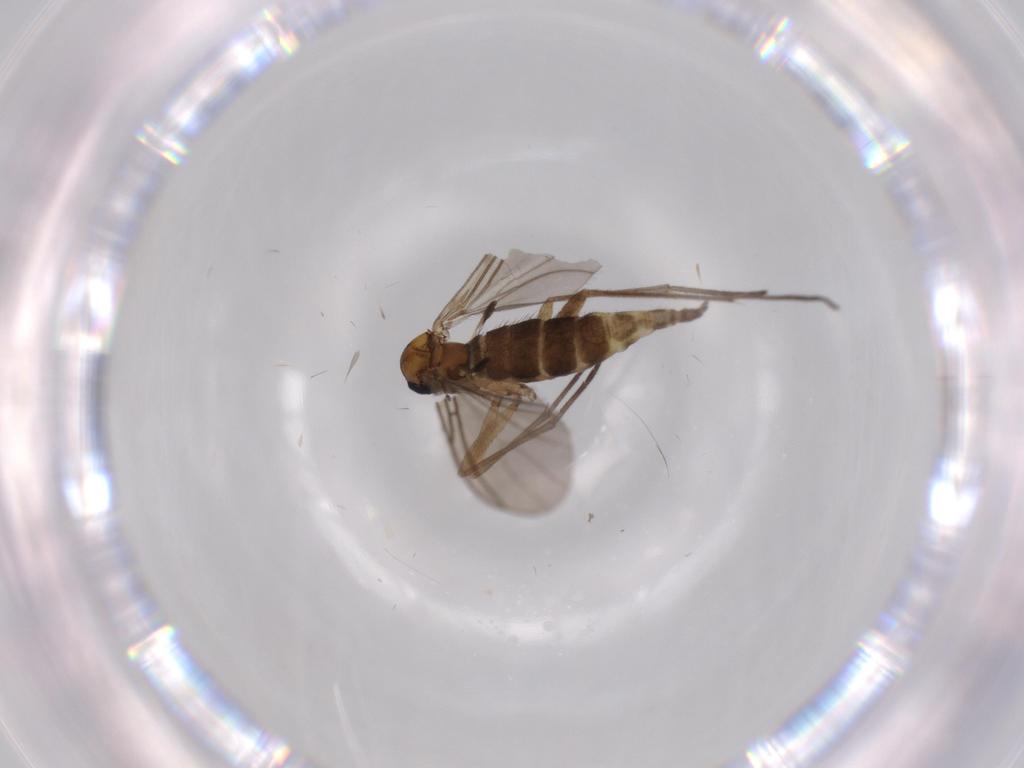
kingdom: Animalia
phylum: Arthropoda
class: Insecta
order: Diptera
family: Sciaridae
